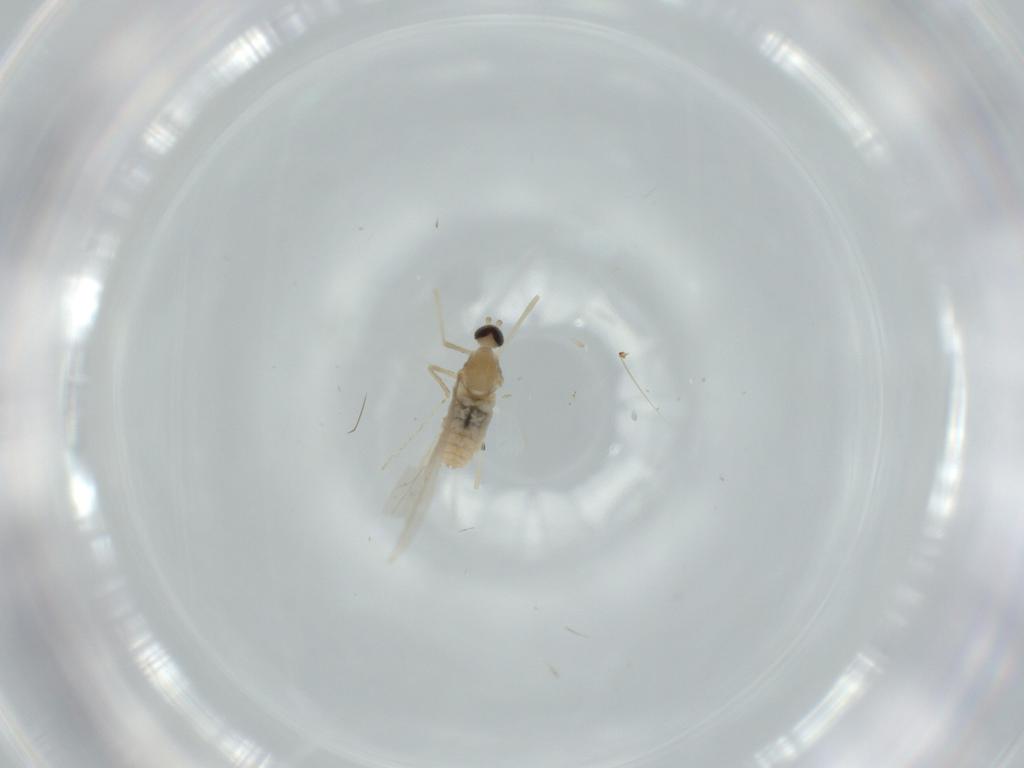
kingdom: Animalia
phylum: Arthropoda
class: Insecta
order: Diptera
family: Cecidomyiidae
